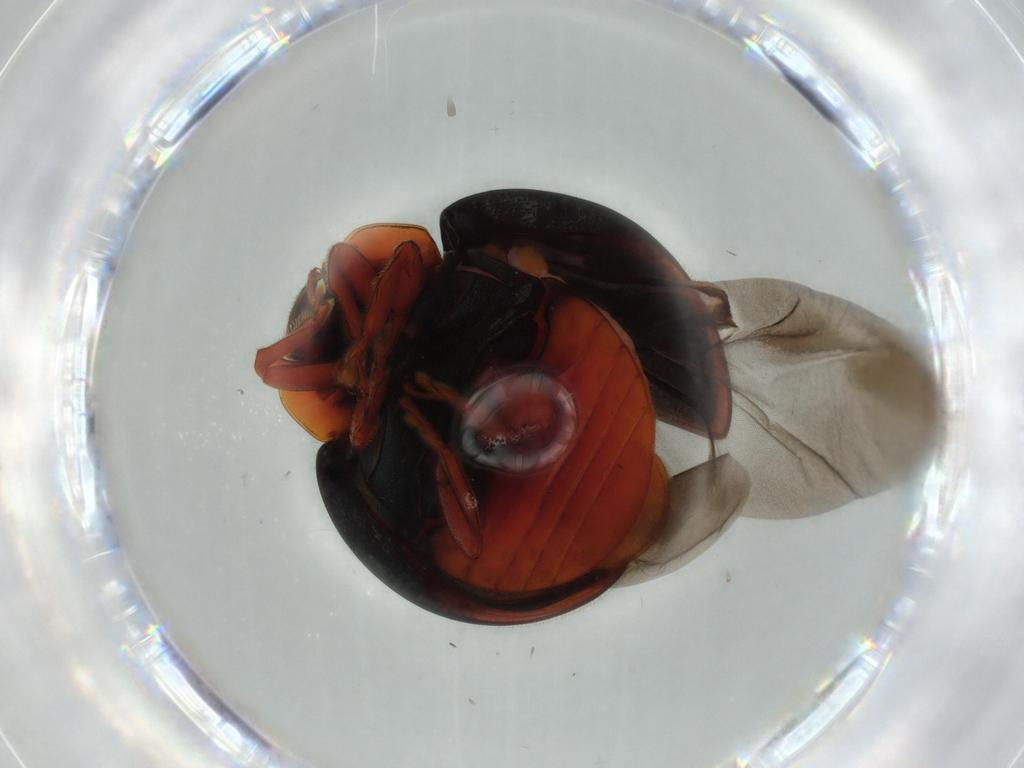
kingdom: Animalia
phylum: Arthropoda
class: Insecta
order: Coleoptera
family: Coccinellidae
